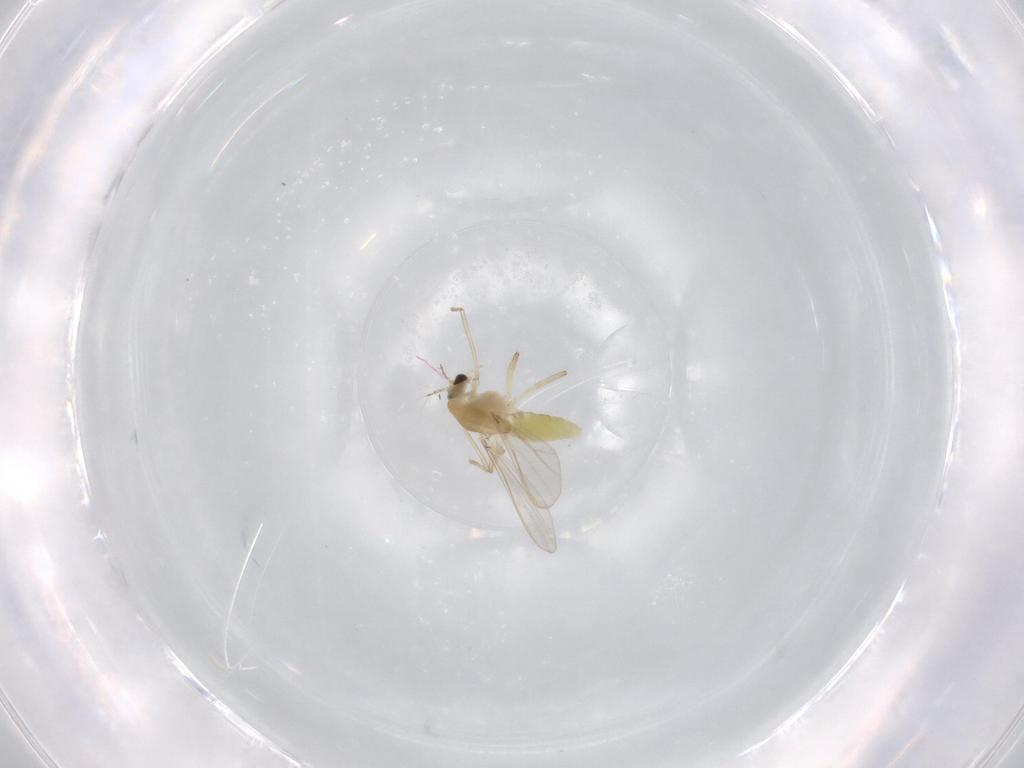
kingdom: Animalia
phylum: Arthropoda
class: Insecta
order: Diptera
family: Chironomidae
